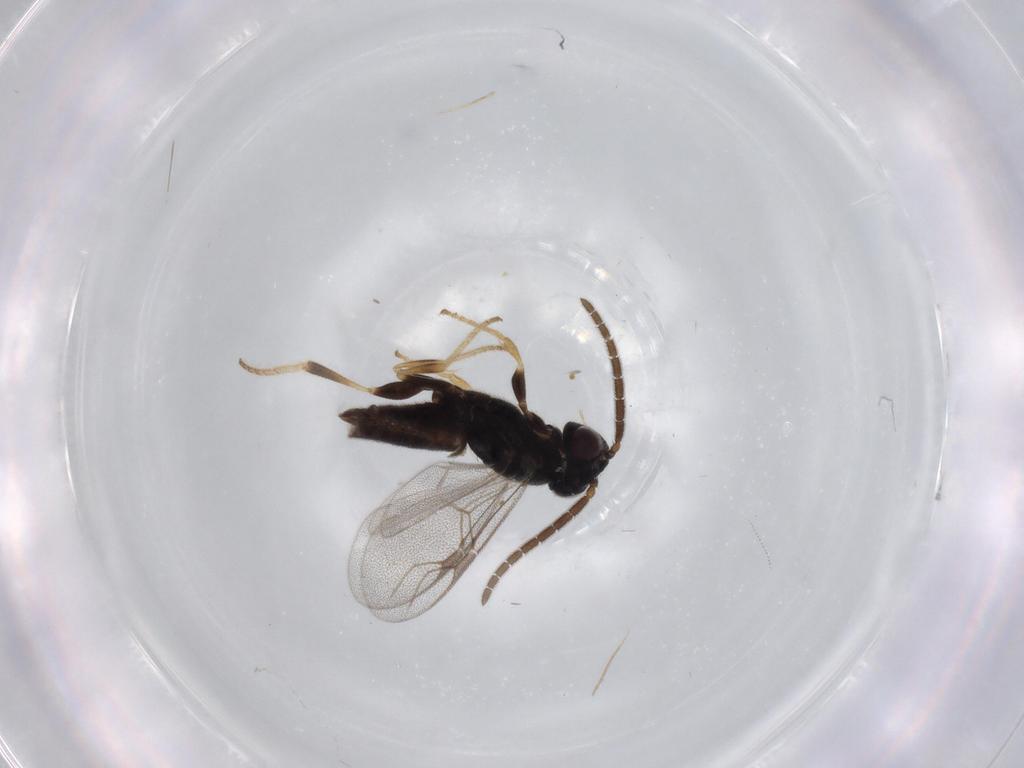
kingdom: Animalia
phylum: Arthropoda
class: Insecta
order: Hymenoptera
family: Dryinidae
